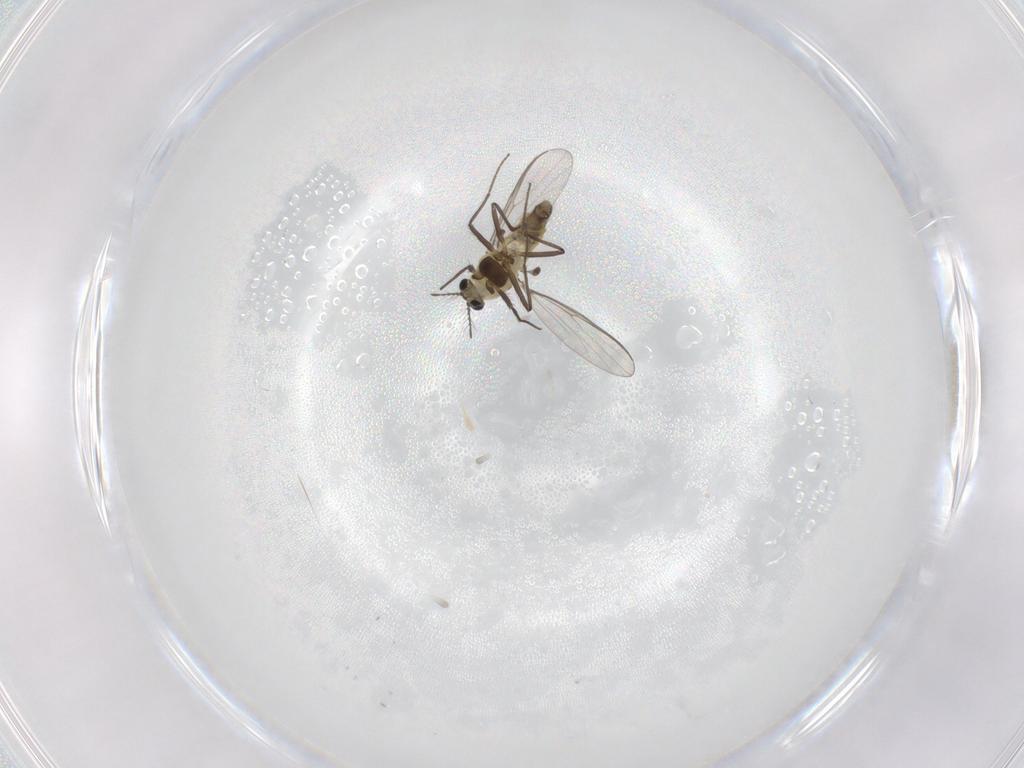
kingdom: Animalia
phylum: Arthropoda
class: Insecta
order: Diptera
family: Chironomidae
